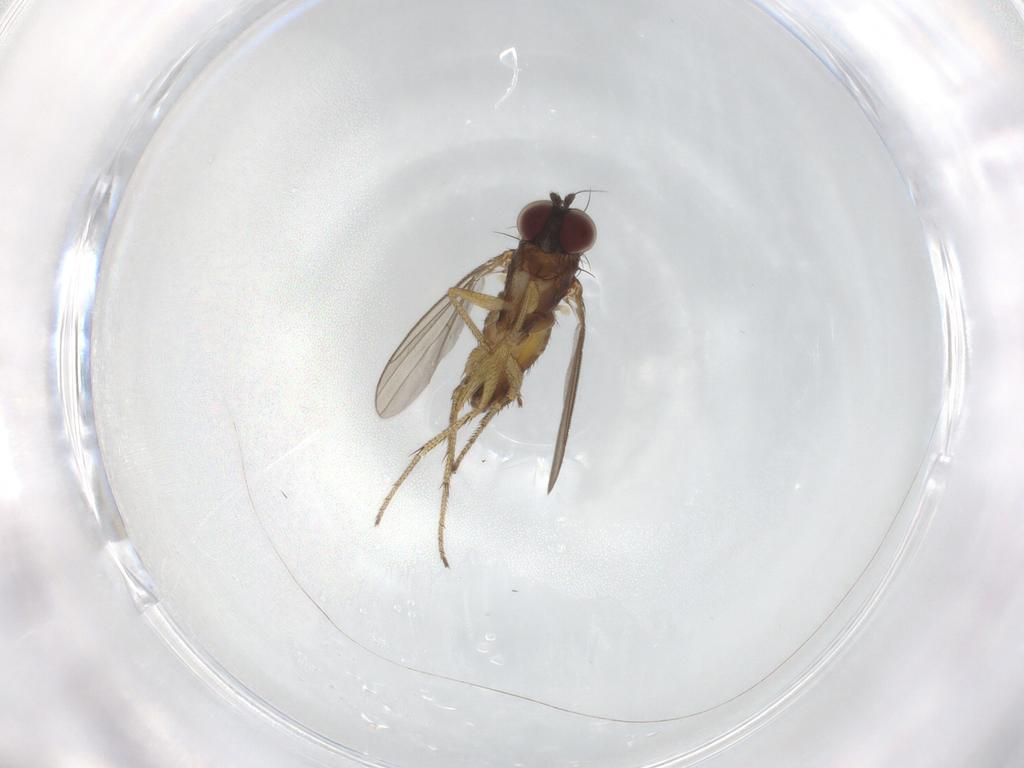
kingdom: Animalia
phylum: Arthropoda
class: Insecta
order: Diptera
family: Dolichopodidae
